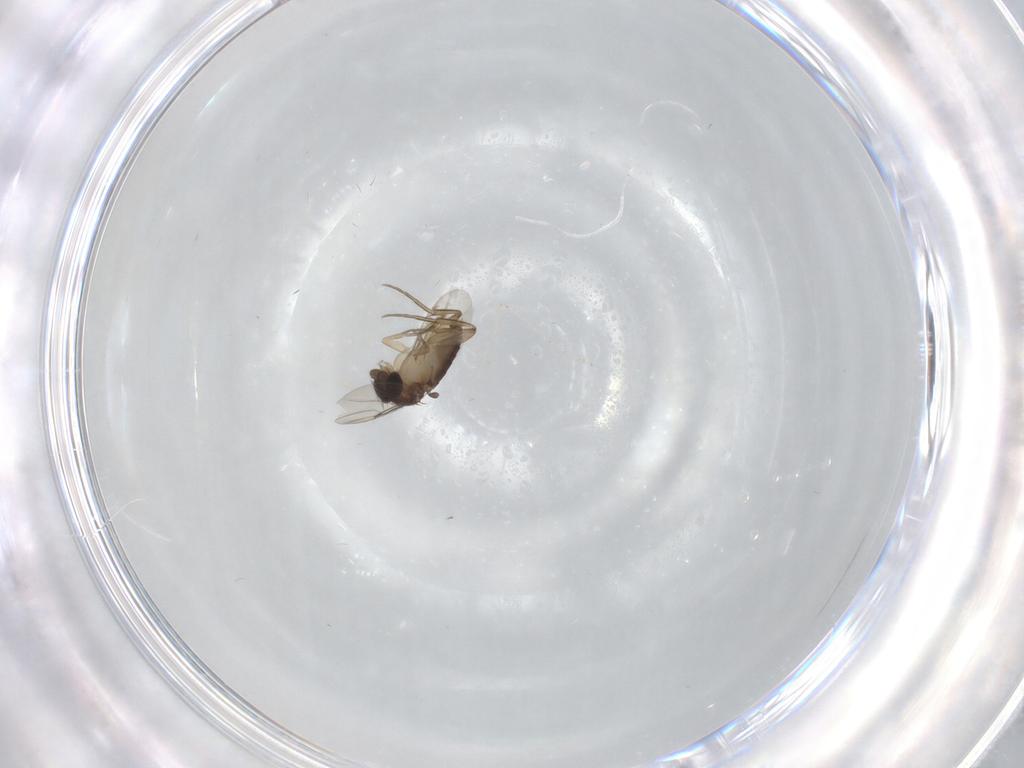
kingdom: Animalia
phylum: Arthropoda
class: Insecta
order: Diptera
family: Phoridae
